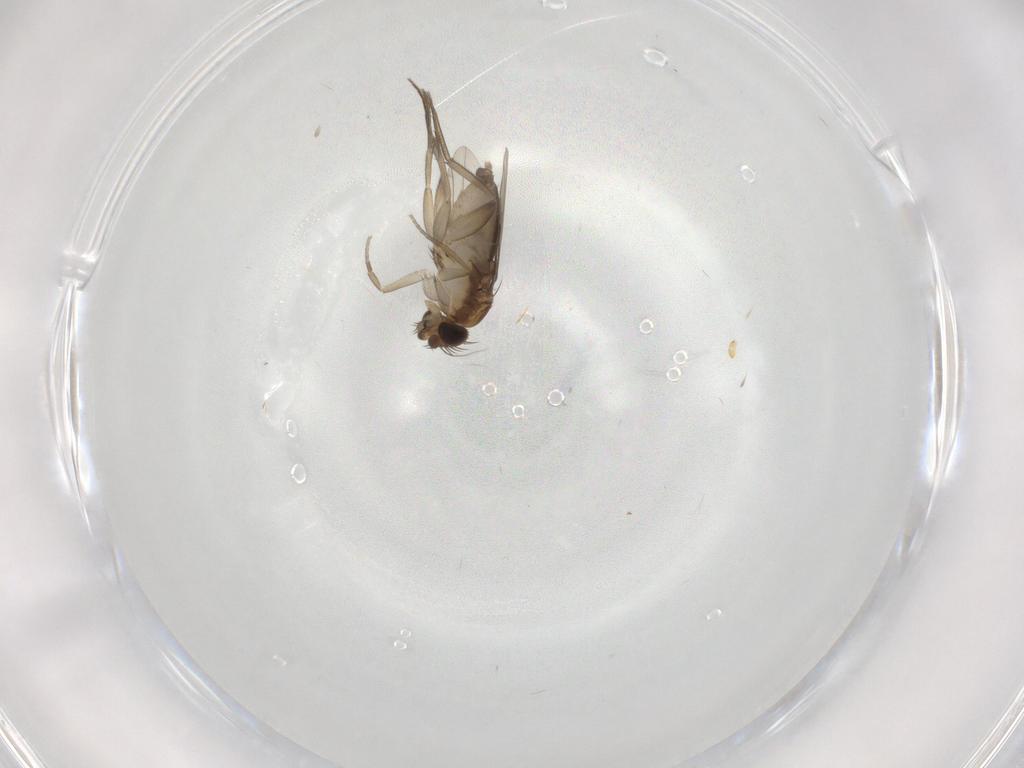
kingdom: Animalia
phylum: Arthropoda
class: Insecta
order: Diptera
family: Phoridae
